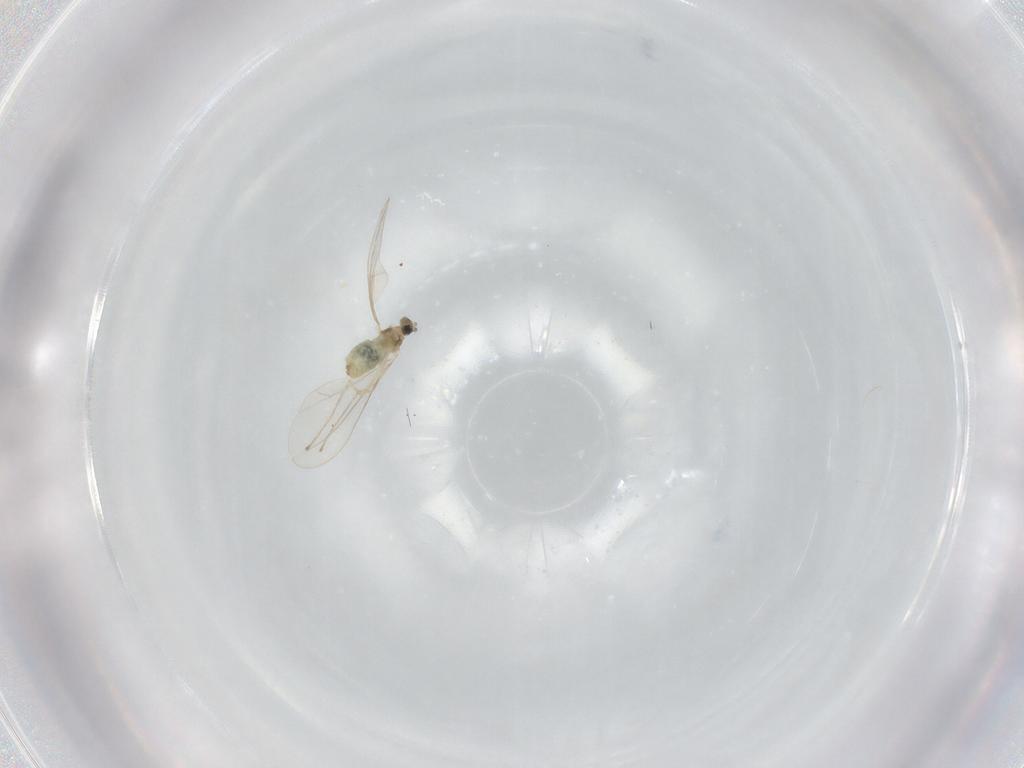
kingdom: Animalia
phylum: Arthropoda
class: Insecta
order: Diptera
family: Cecidomyiidae
